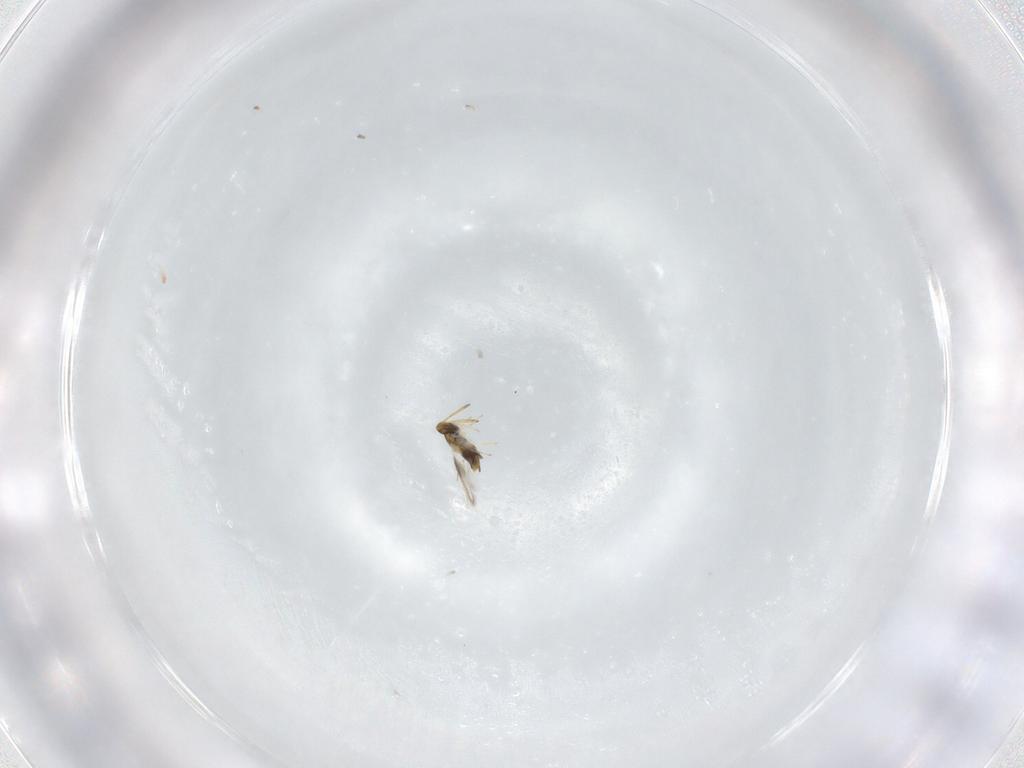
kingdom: Animalia
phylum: Arthropoda
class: Insecta
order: Hymenoptera
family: Aphelinidae
